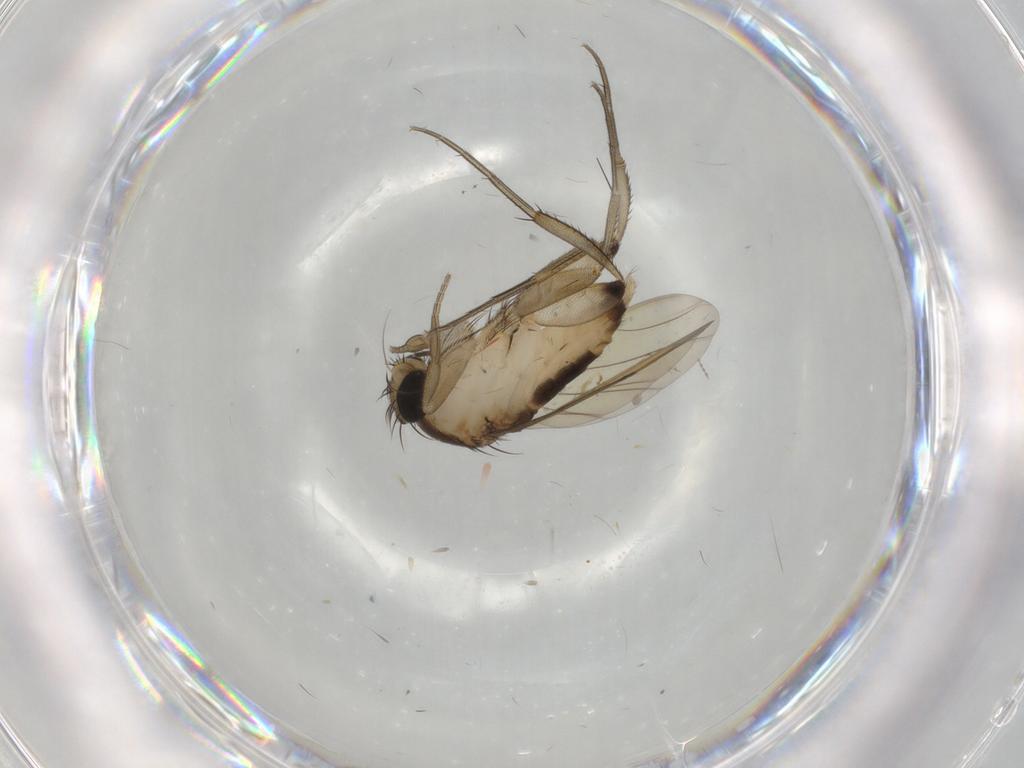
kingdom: Animalia
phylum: Arthropoda
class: Insecta
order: Diptera
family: Phoridae
